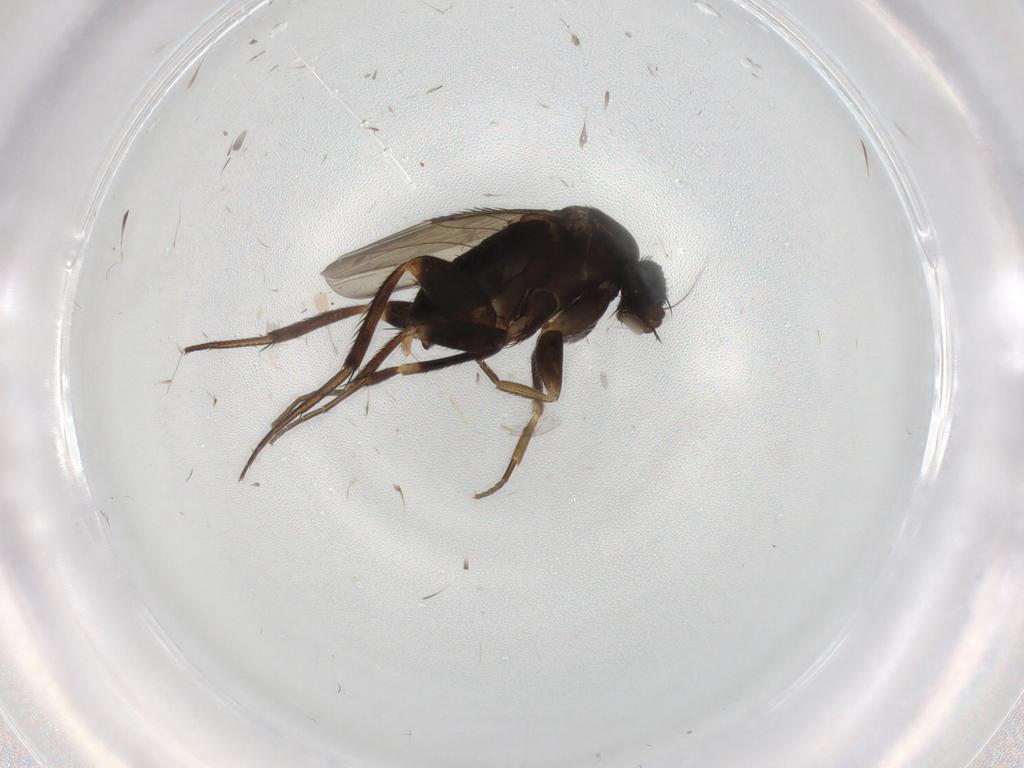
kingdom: Animalia
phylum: Arthropoda
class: Insecta
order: Diptera
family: Phoridae
